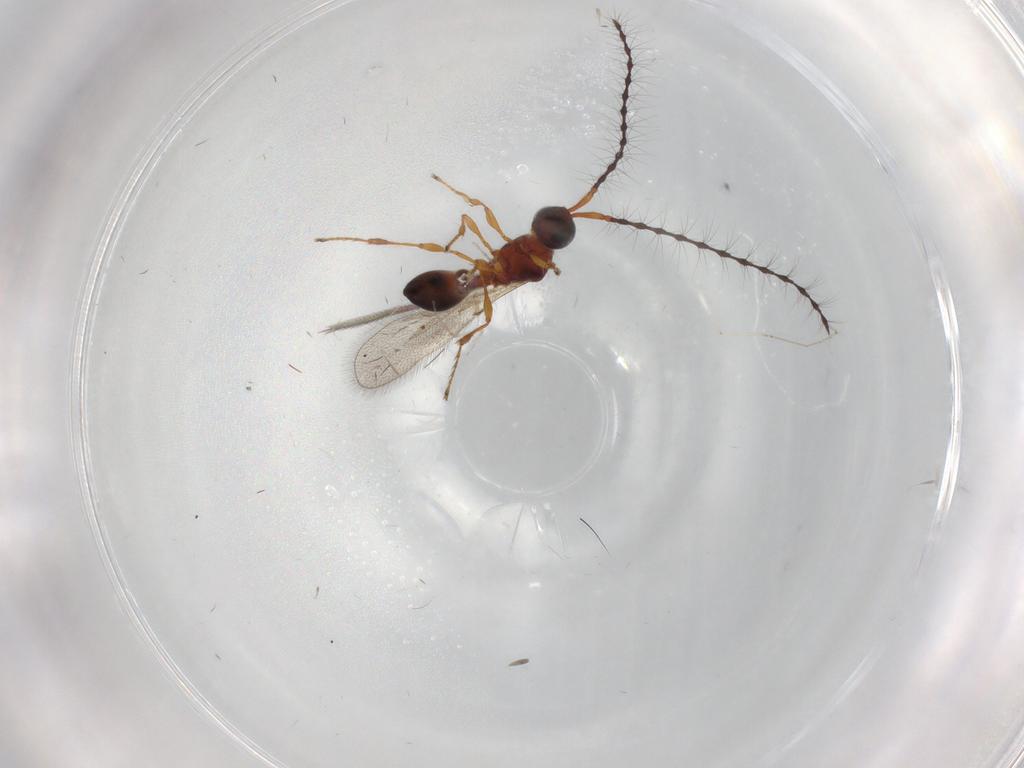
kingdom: Animalia
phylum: Arthropoda
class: Insecta
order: Hymenoptera
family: Diapriidae
